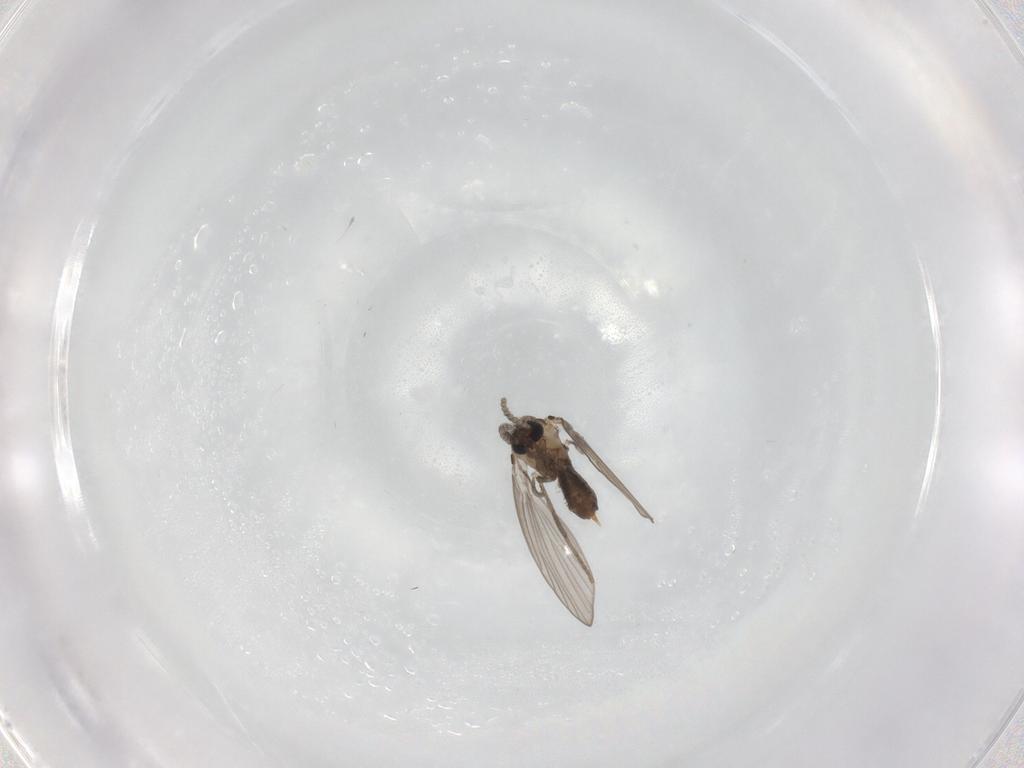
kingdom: Animalia
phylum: Arthropoda
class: Insecta
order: Diptera
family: Psychodidae
